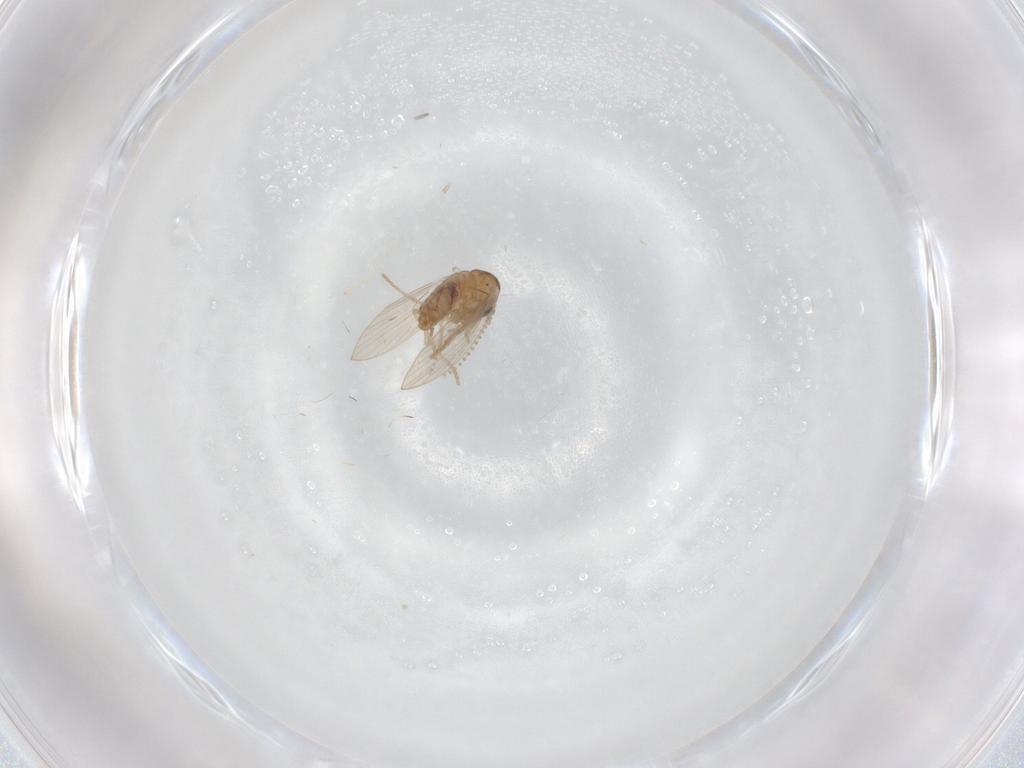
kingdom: Animalia
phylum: Arthropoda
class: Insecta
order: Diptera
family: Psychodidae
